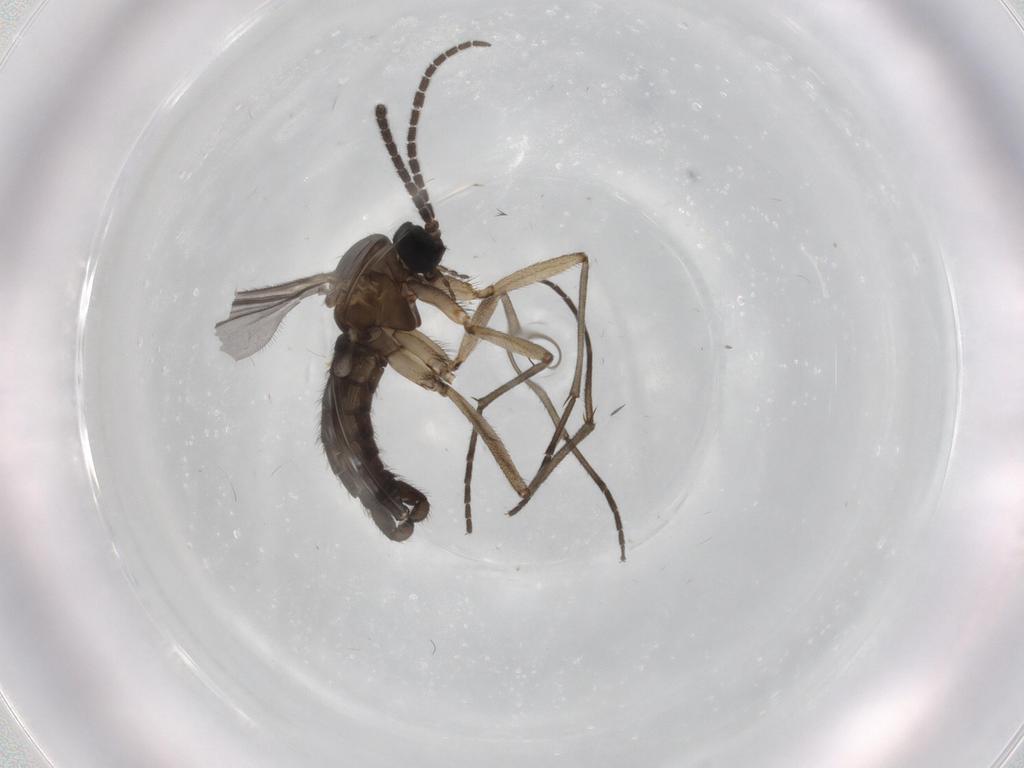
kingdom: Animalia
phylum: Arthropoda
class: Insecta
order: Diptera
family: Sciaridae
